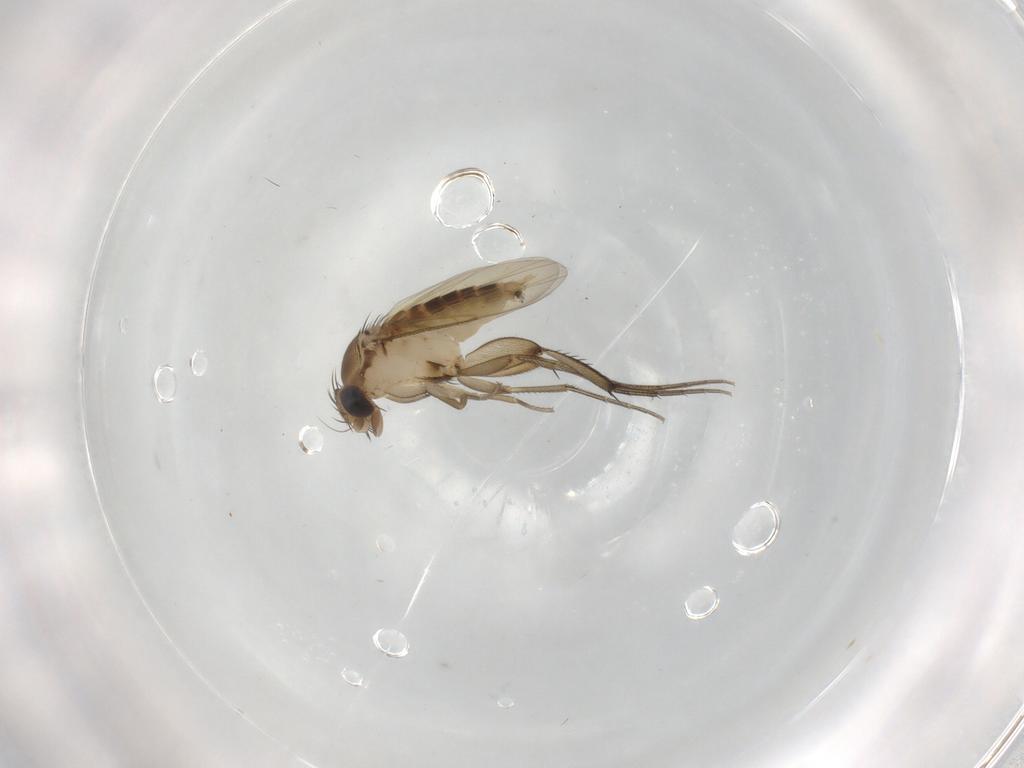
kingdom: Animalia
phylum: Arthropoda
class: Insecta
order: Diptera
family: Phoridae
